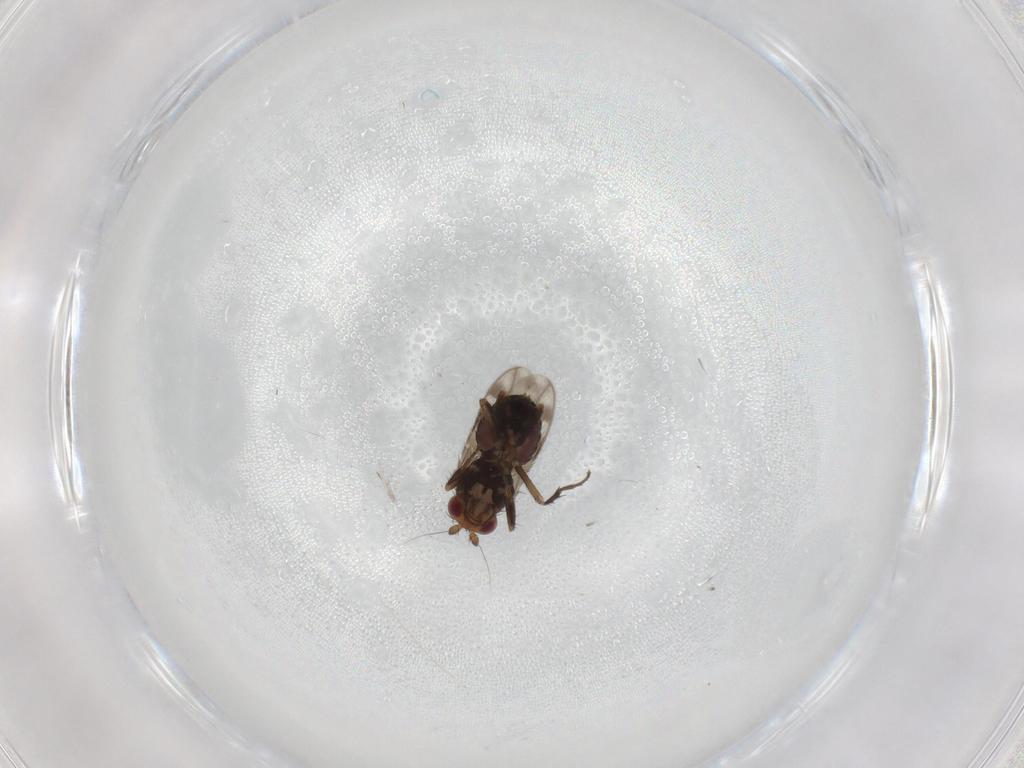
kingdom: Animalia
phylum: Arthropoda
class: Insecta
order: Diptera
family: Sphaeroceridae
